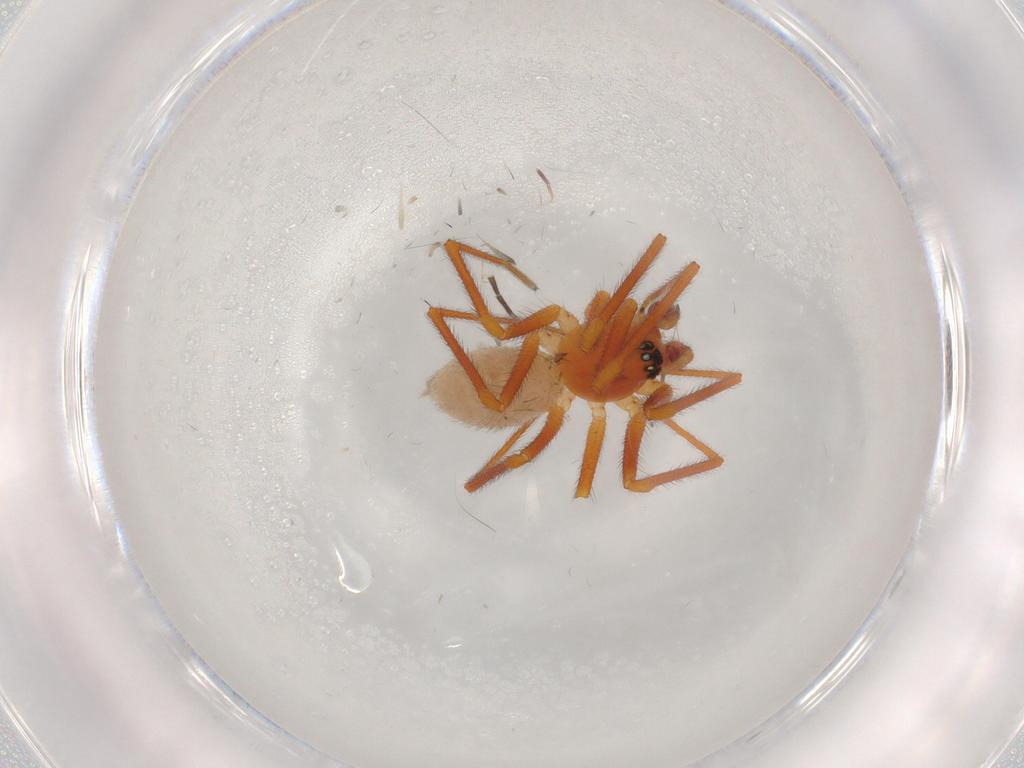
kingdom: Animalia
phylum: Arthropoda
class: Arachnida
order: Araneae
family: Linyphiidae
